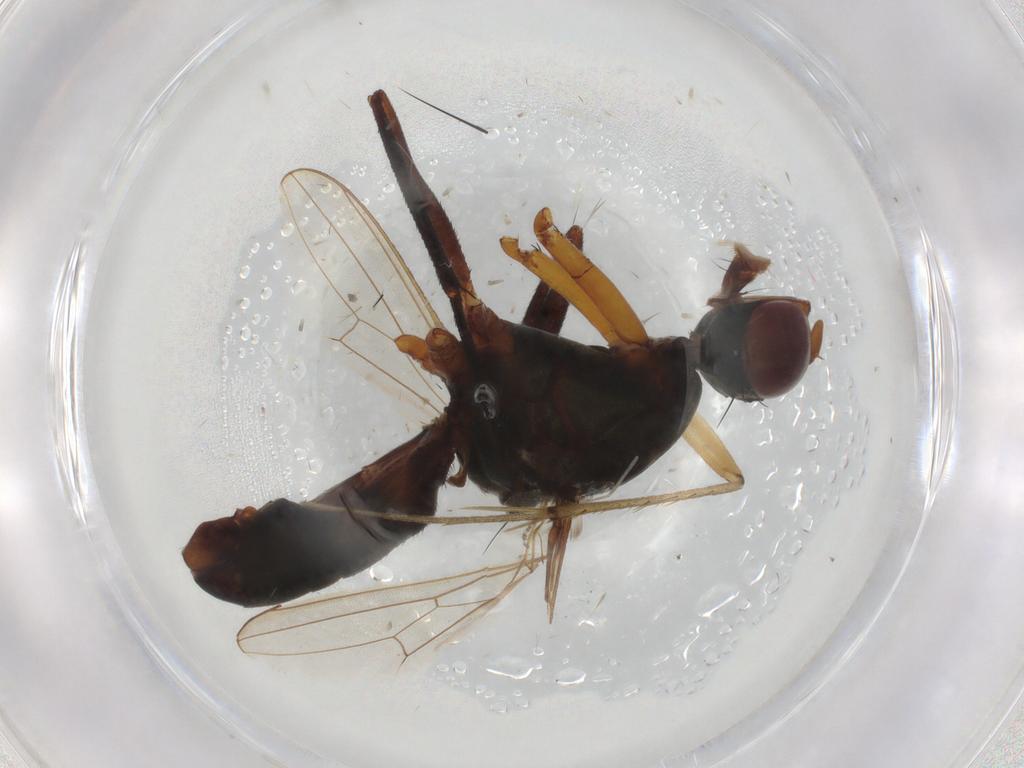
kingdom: Animalia
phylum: Arthropoda
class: Insecta
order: Diptera
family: Mycetophilidae
